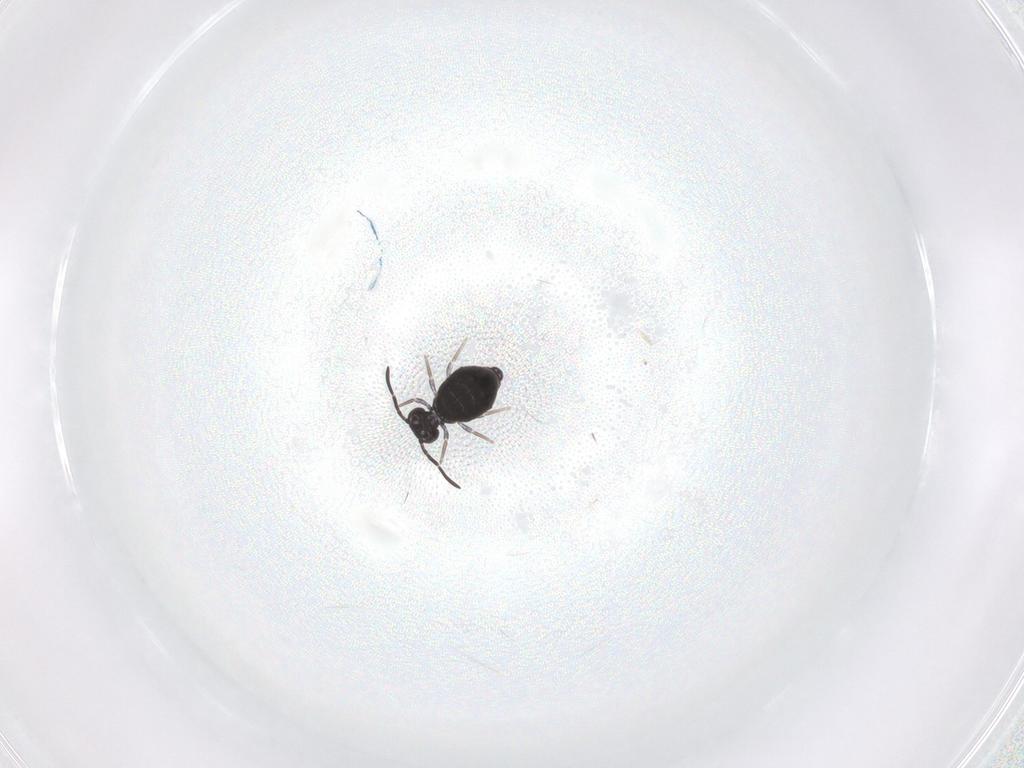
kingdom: Animalia
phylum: Arthropoda
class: Collembola
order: Symphypleona
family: Katiannidae
